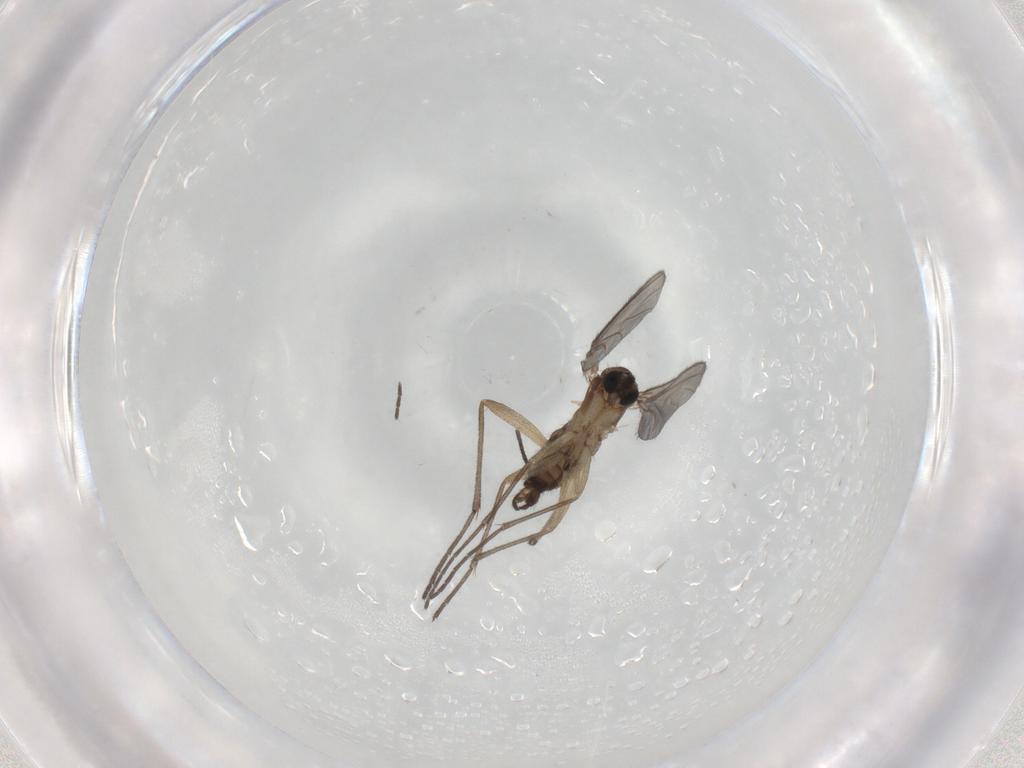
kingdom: Animalia
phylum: Arthropoda
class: Insecta
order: Diptera
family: Sciaridae
